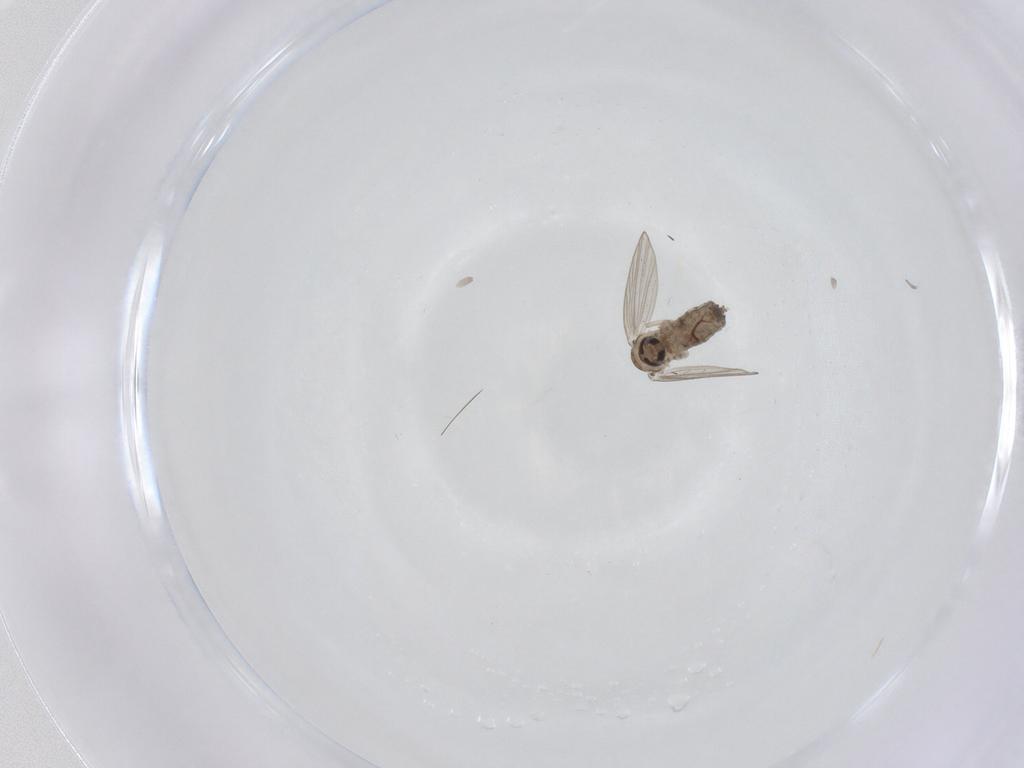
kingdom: Animalia
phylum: Arthropoda
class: Insecta
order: Diptera
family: Psychodidae
